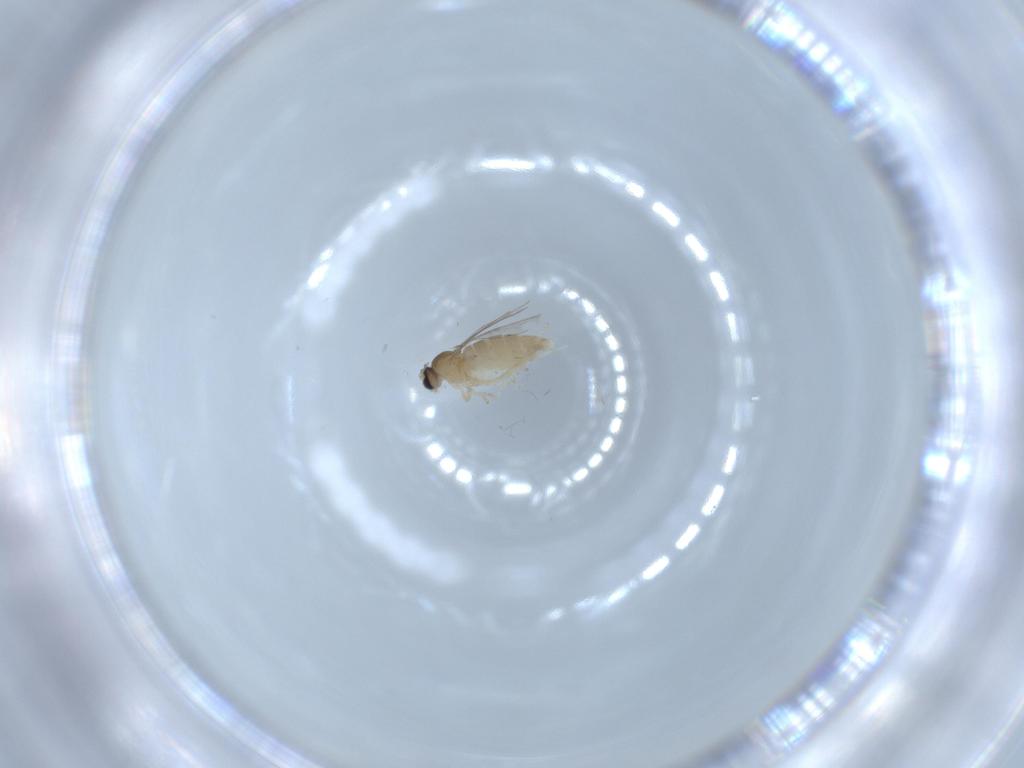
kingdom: Animalia
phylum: Arthropoda
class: Insecta
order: Diptera
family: Cecidomyiidae
